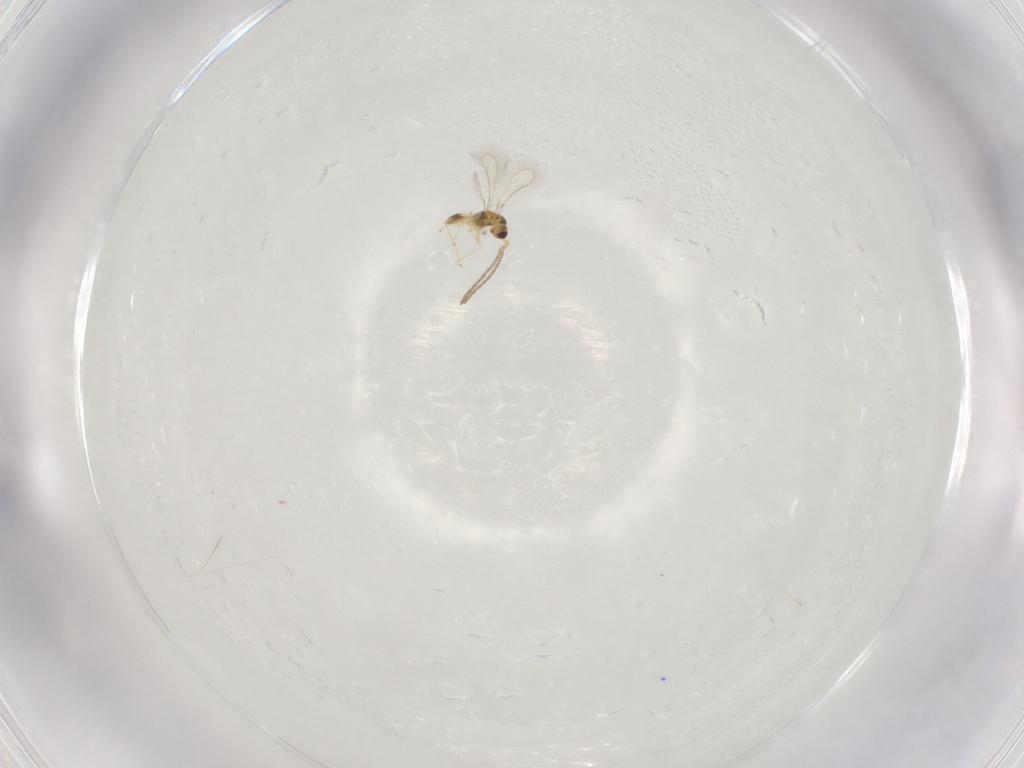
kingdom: Animalia
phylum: Arthropoda
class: Insecta
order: Hymenoptera
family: Mymaridae
